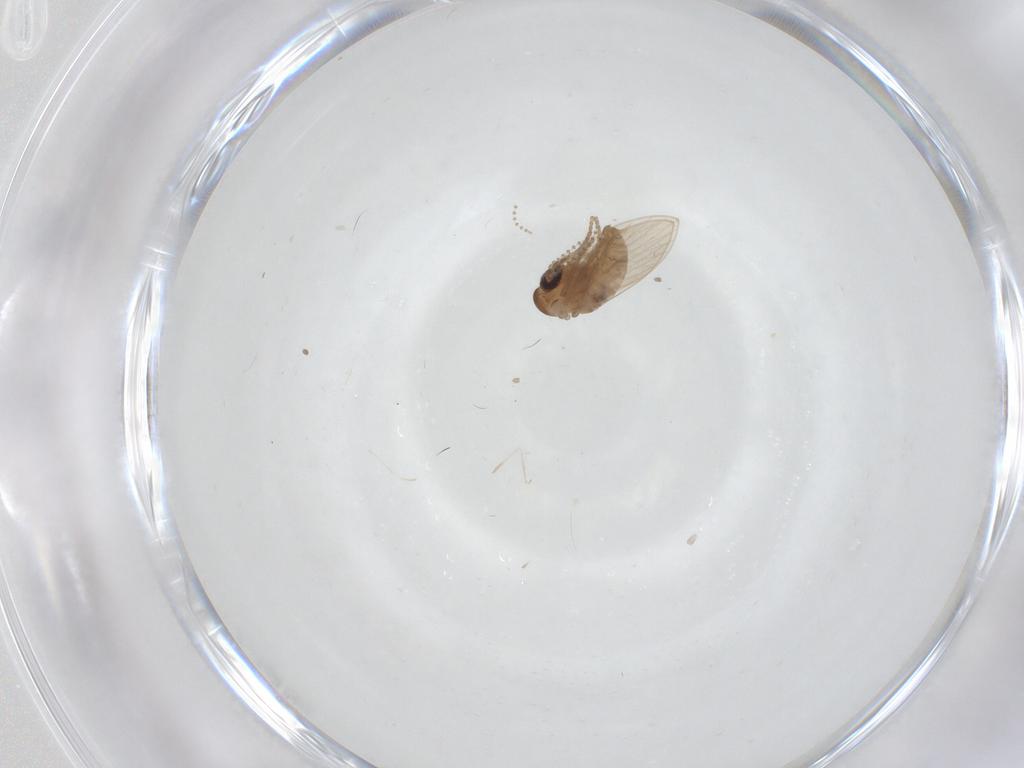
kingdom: Animalia
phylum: Arthropoda
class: Insecta
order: Diptera
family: Psychodidae
